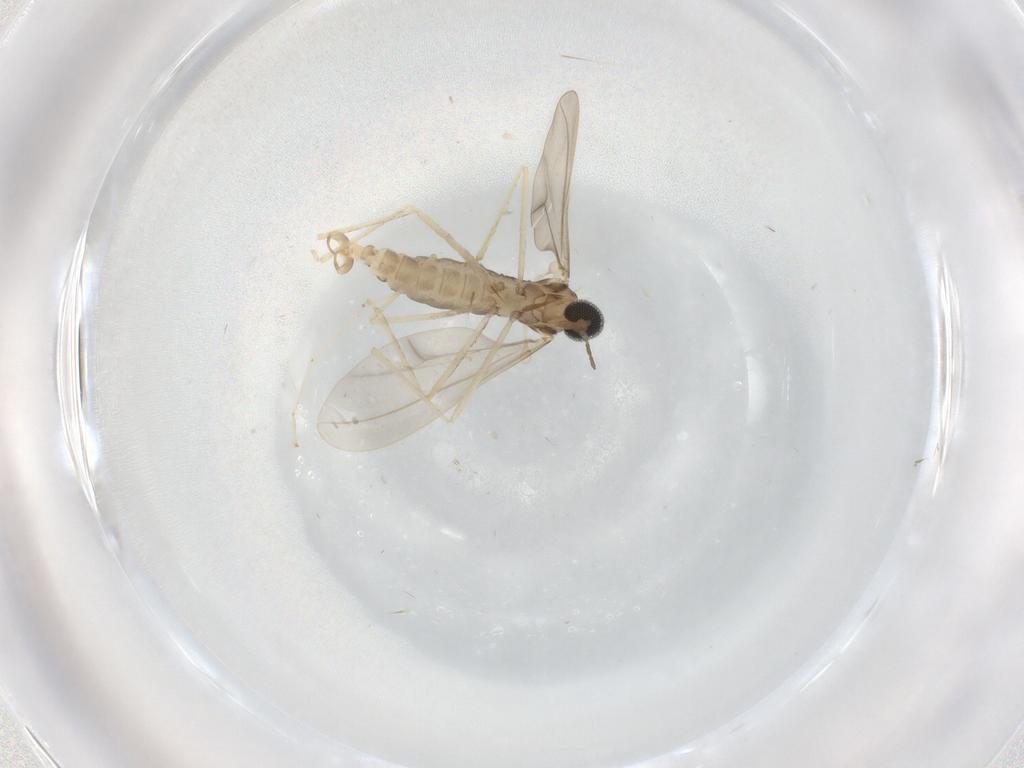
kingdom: Animalia
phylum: Arthropoda
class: Insecta
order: Diptera
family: Cecidomyiidae
